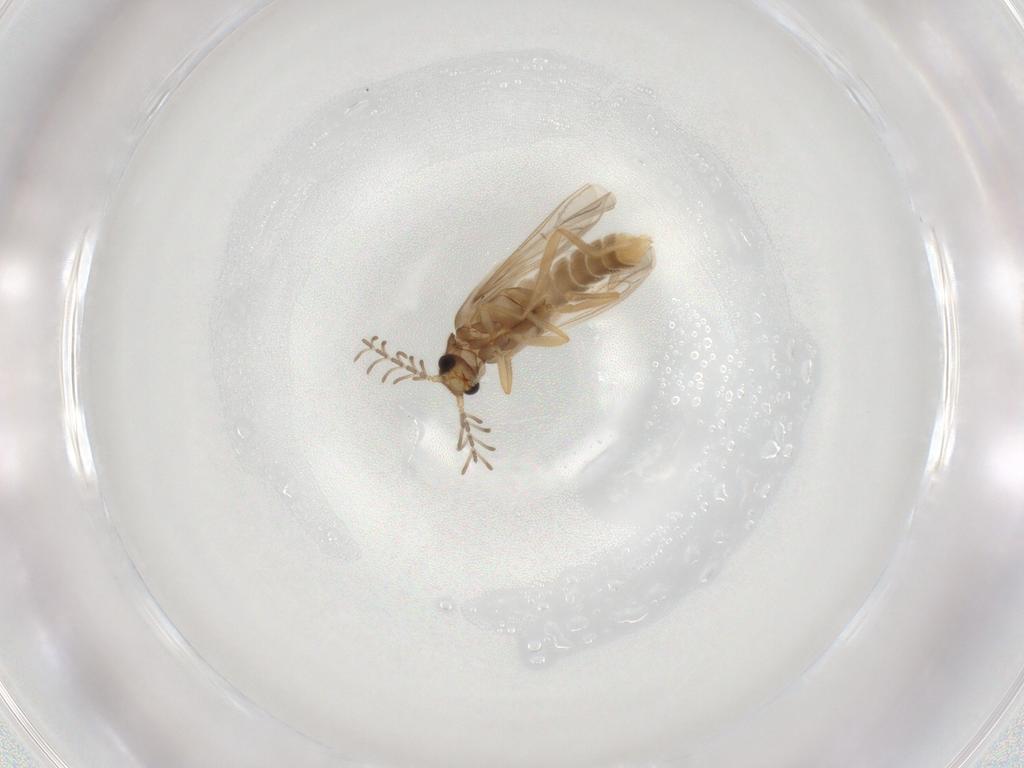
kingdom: Animalia
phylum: Arthropoda
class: Insecta
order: Coleoptera
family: Phengodidae
